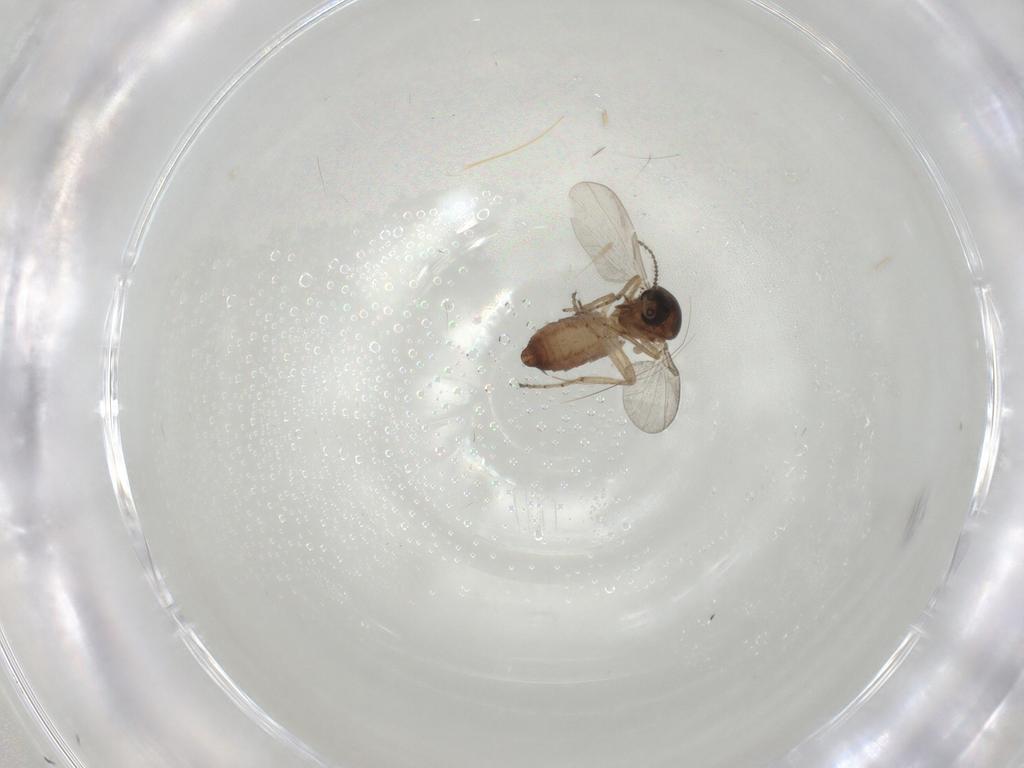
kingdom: Animalia
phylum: Arthropoda
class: Insecta
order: Diptera
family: Ceratopogonidae
